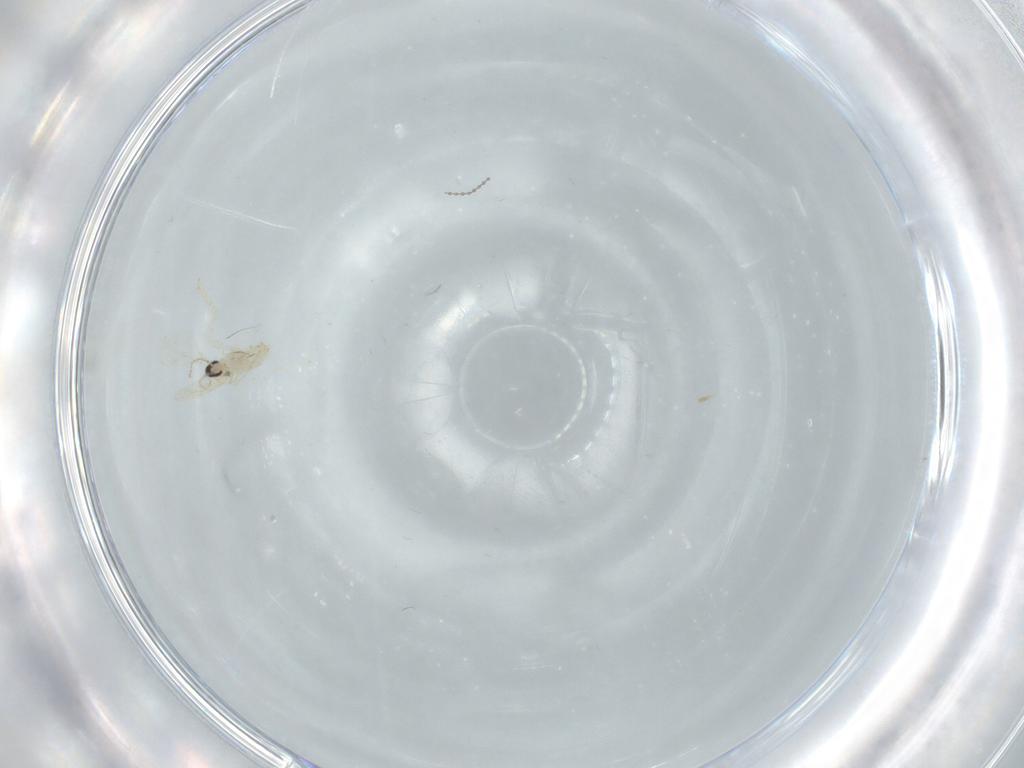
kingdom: Animalia
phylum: Arthropoda
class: Insecta
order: Diptera
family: Cecidomyiidae
